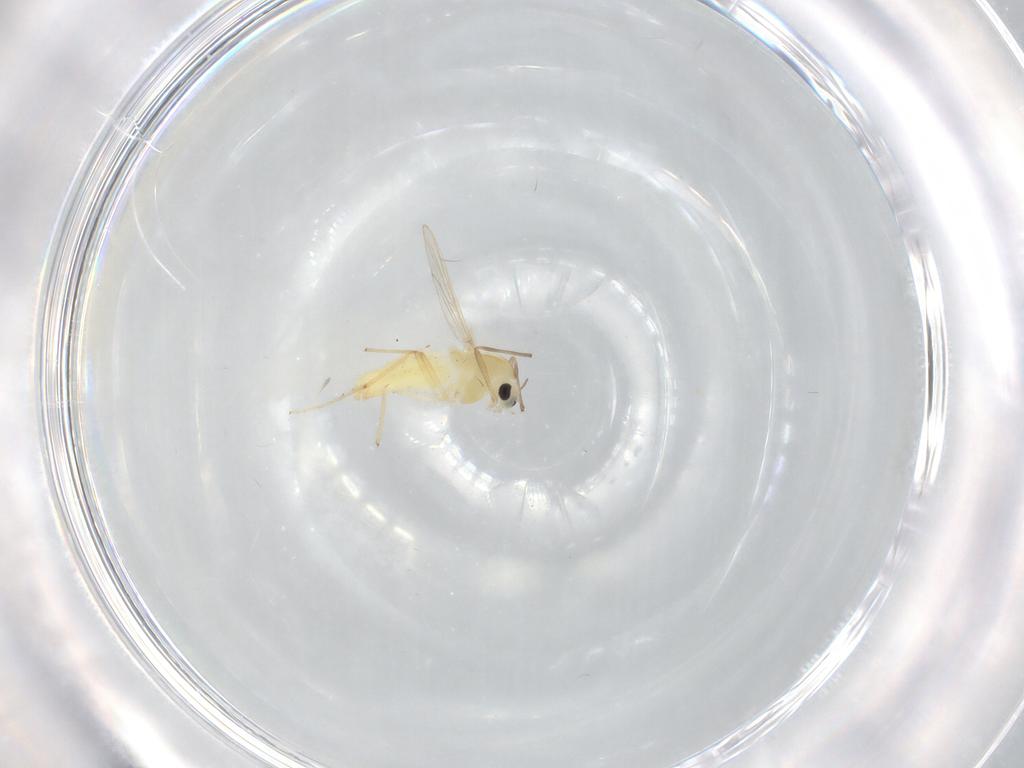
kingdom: Animalia
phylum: Arthropoda
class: Insecta
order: Diptera
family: Chironomidae
